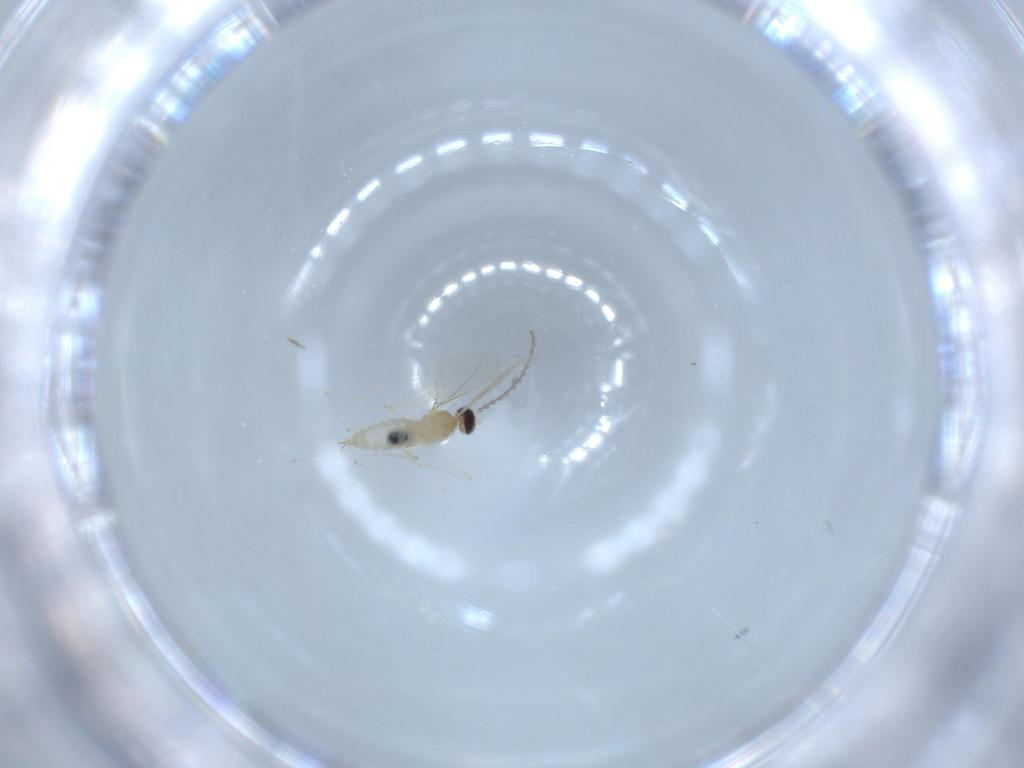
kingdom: Animalia
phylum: Arthropoda
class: Insecta
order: Diptera
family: Cecidomyiidae
